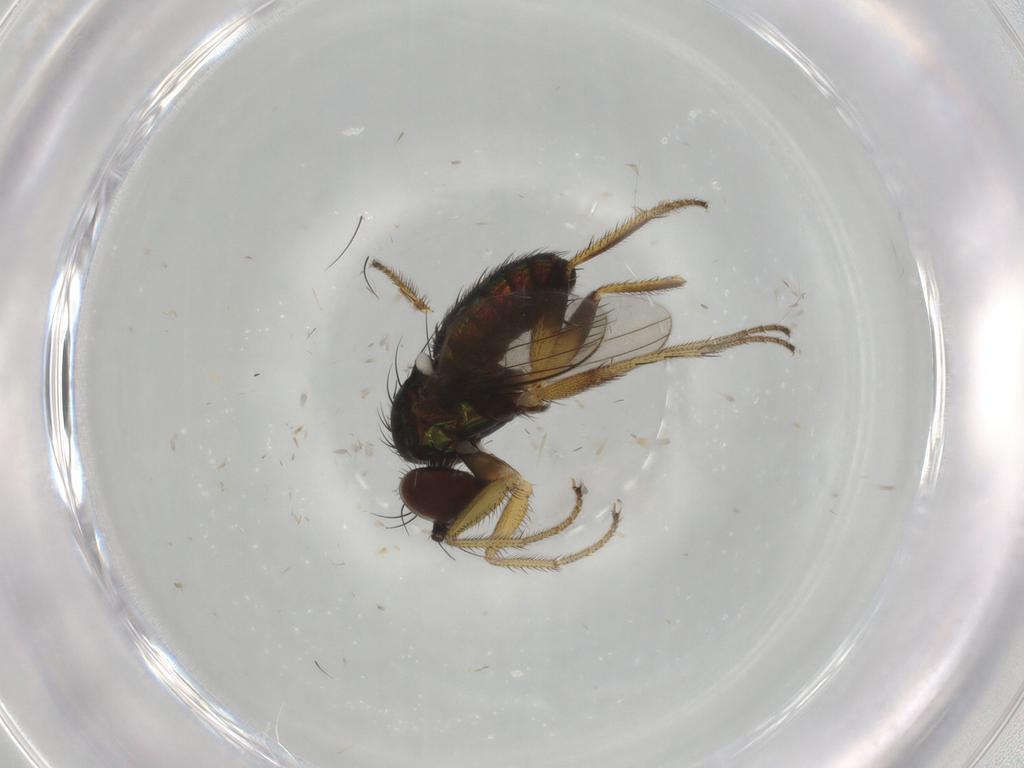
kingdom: Animalia
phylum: Arthropoda
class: Insecta
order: Diptera
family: Dolichopodidae
